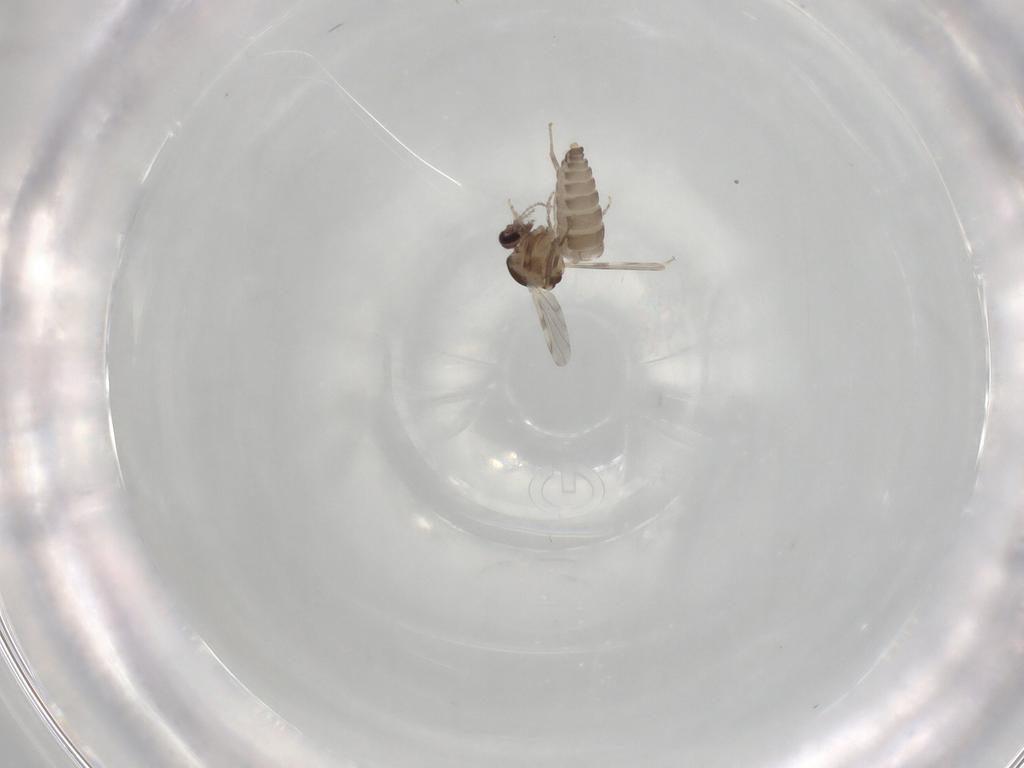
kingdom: Animalia
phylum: Arthropoda
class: Insecta
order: Diptera
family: Ceratopogonidae
